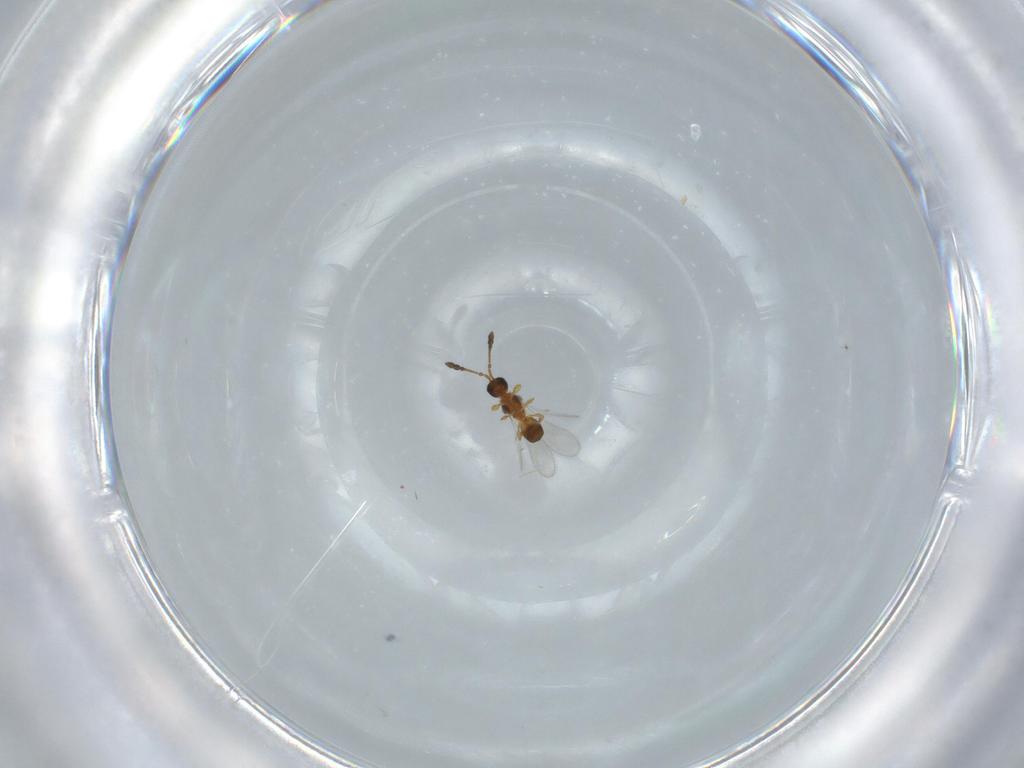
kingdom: Animalia
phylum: Arthropoda
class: Insecta
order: Hymenoptera
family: Diapriidae
